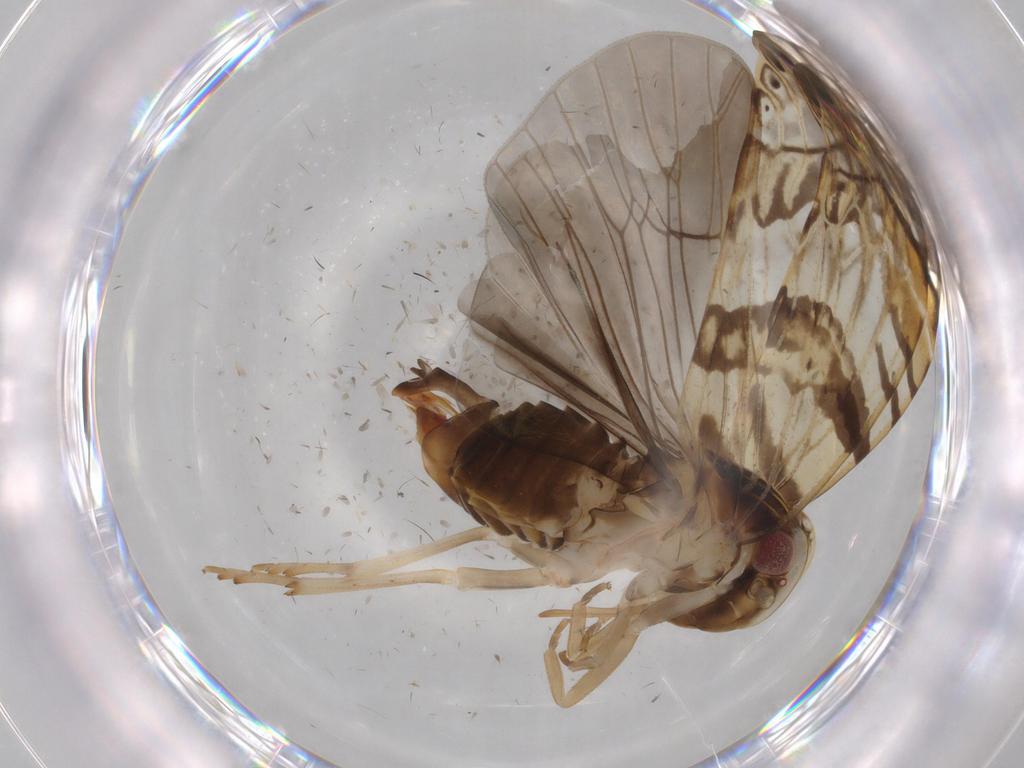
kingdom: Animalia
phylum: Arthropoda
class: Insecta
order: Hemiptera
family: Cixiidae
